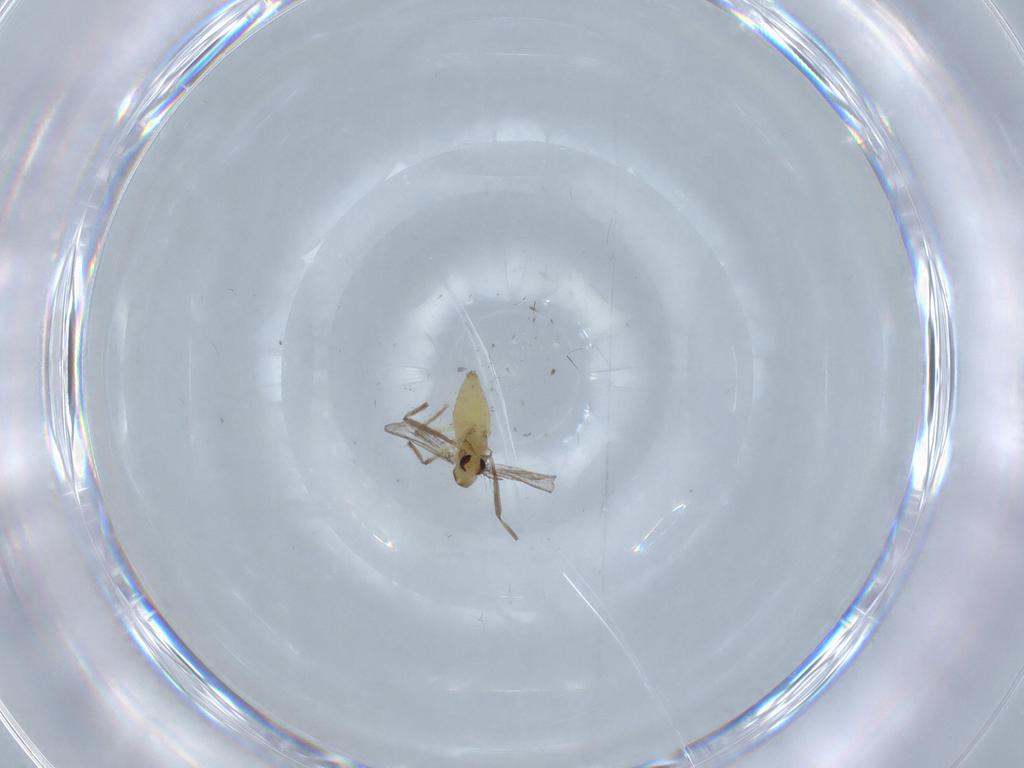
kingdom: Animalia
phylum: Arthropoda
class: Insecta
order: Diptera
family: Chironomidae
